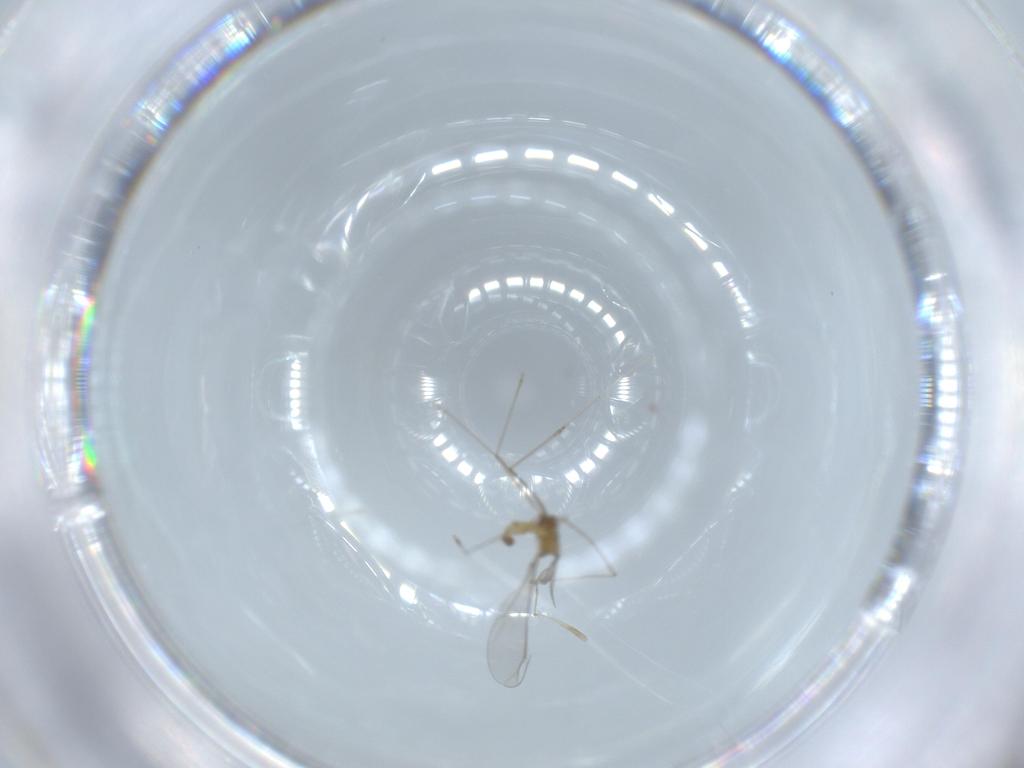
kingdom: Animalia
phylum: Arthropoda
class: Insecta
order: Diptera
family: Cecidomyiidae
